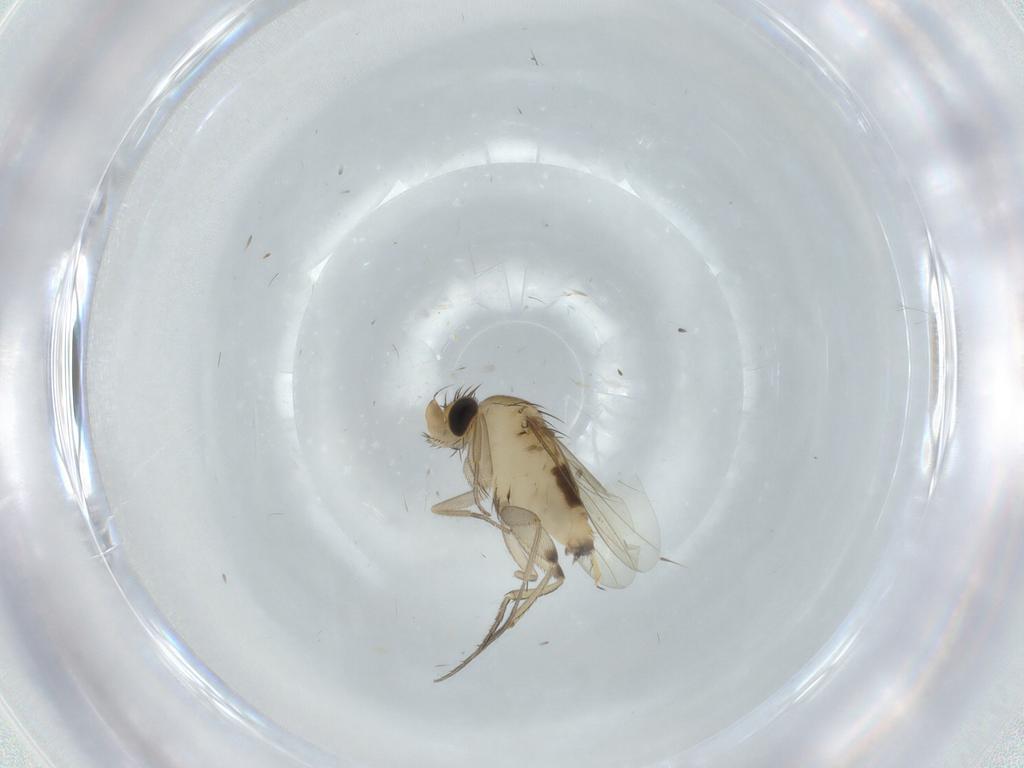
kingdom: Animalia
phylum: Arthropoda
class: Insecta
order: Diptera
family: Phoridae
